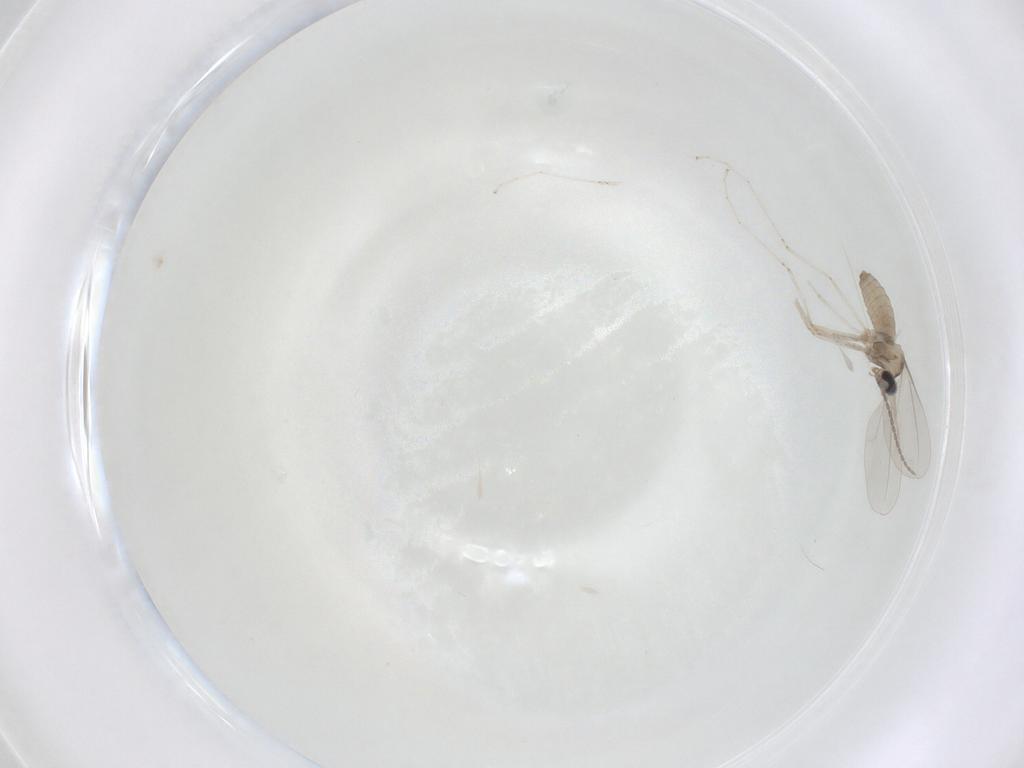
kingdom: Animalia
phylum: Arthropoda
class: Insecta
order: Diptera
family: Cecidomyiidae
